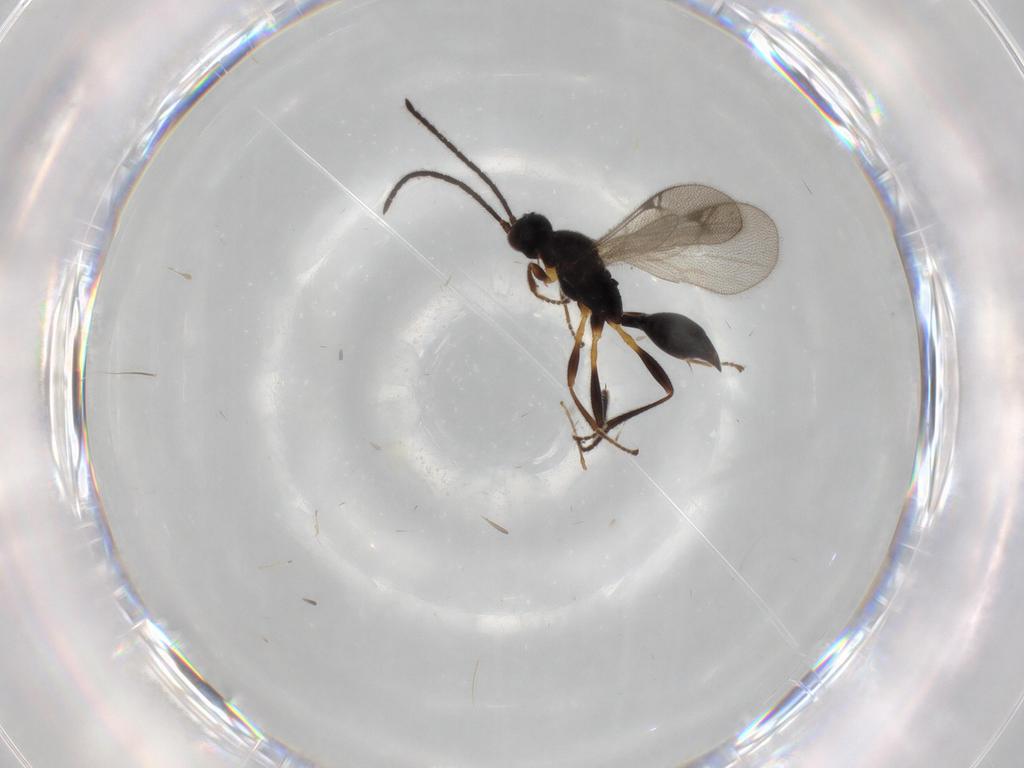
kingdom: Animalia
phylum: Arthropoda
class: Insecta
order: Hymenoptera
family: Proctotrupidae
